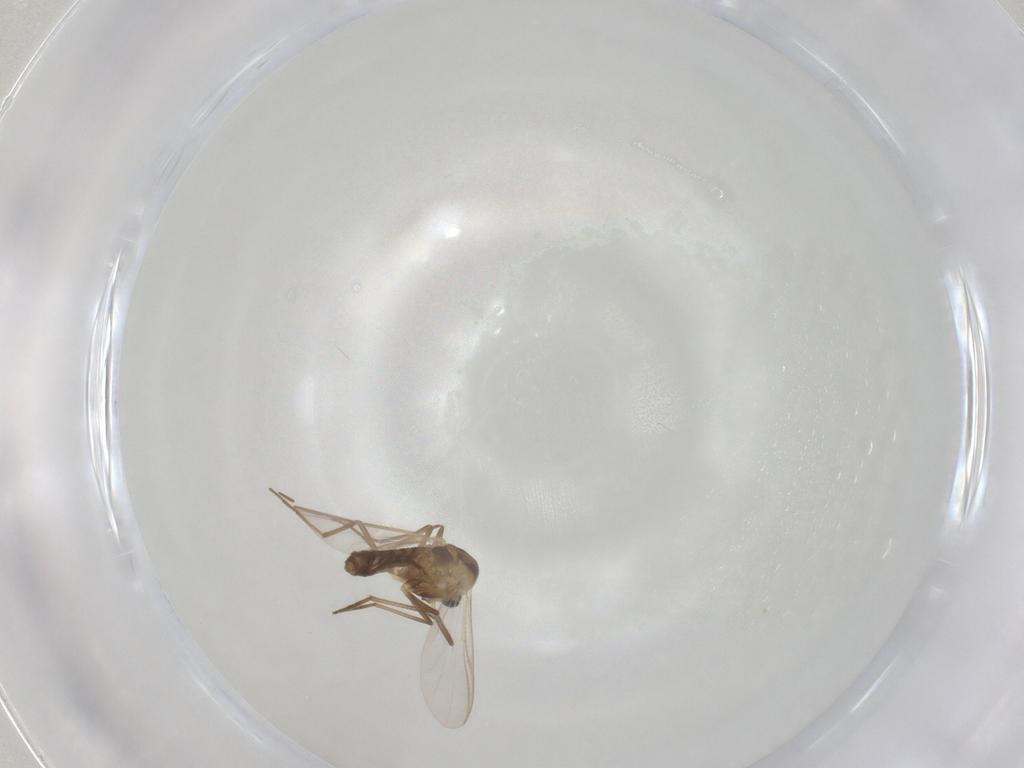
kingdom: Animalia
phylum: Arthropoda
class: Insecta
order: Diptera
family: Chironomidae
